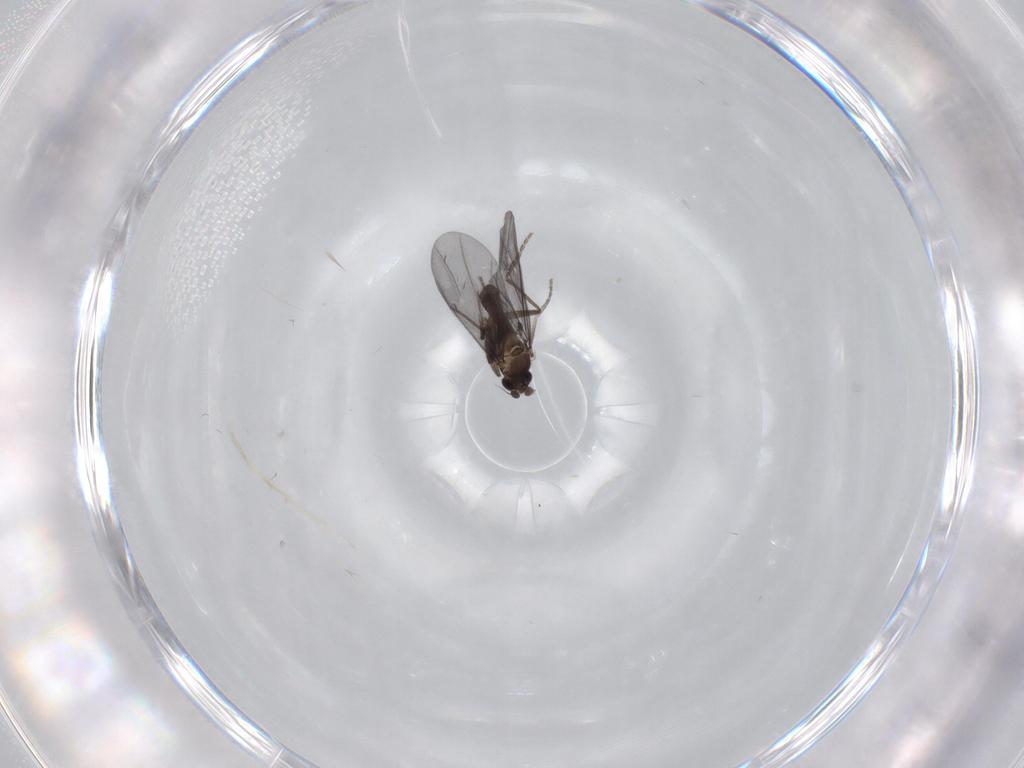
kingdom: Animalia
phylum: Arthropoda
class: Insecta
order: Diptera
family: Phoridae
